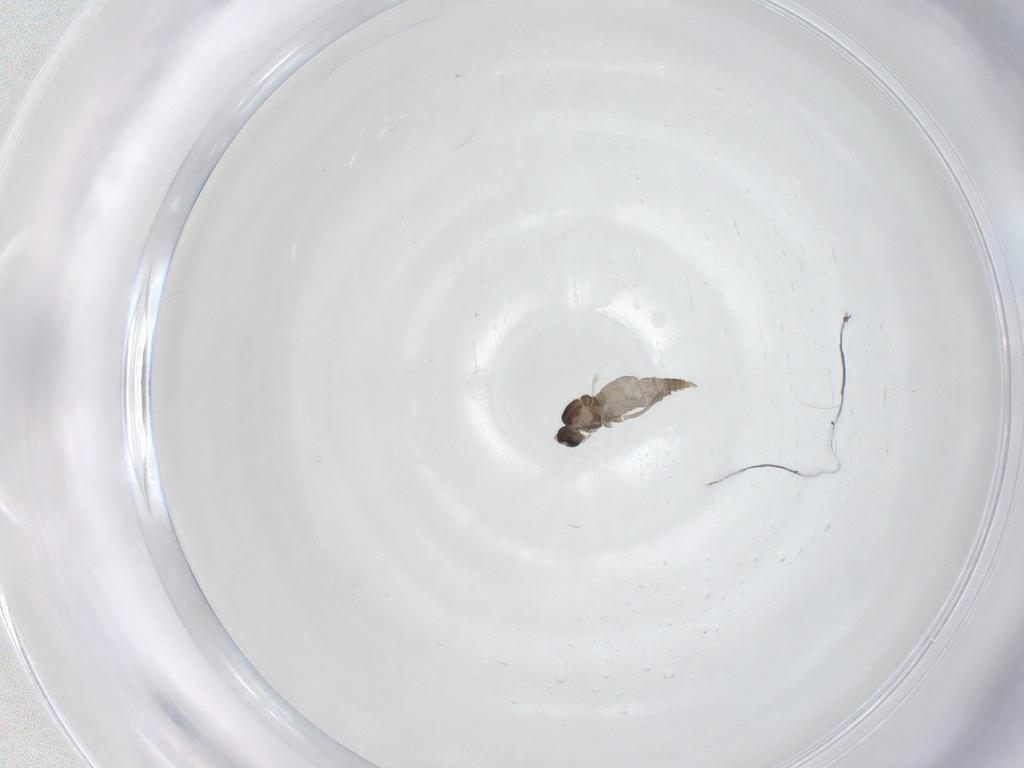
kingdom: Animalia
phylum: Arthropoda
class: Insecta
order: Diptera
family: Cecidomyiidae
